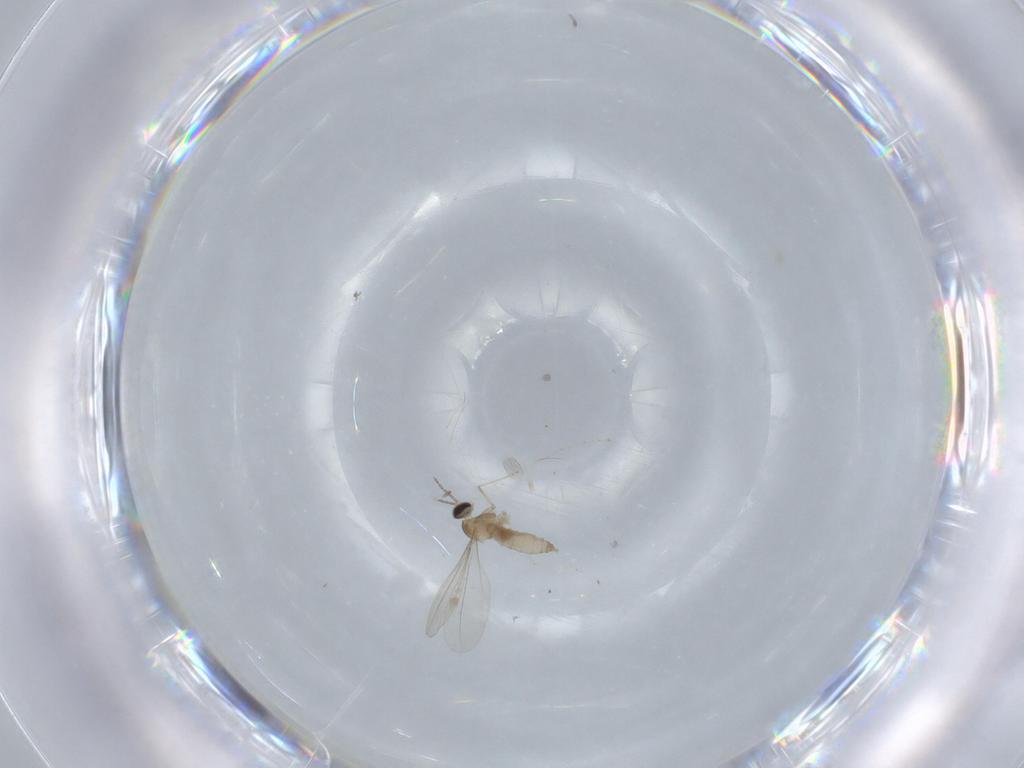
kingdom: Animalia
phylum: Arthropoda
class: Insecta
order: Diptera
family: Cecidomyiidae
